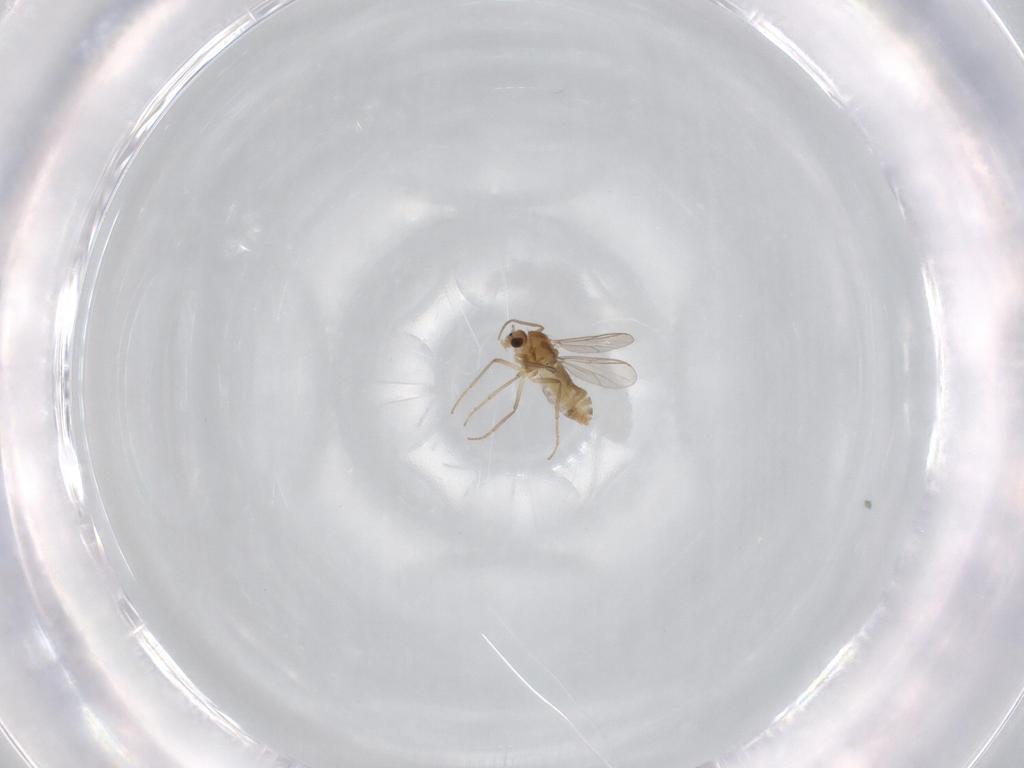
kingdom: Animalia
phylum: Arthropoda
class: Insecta
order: Diptera
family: Chironomidae
